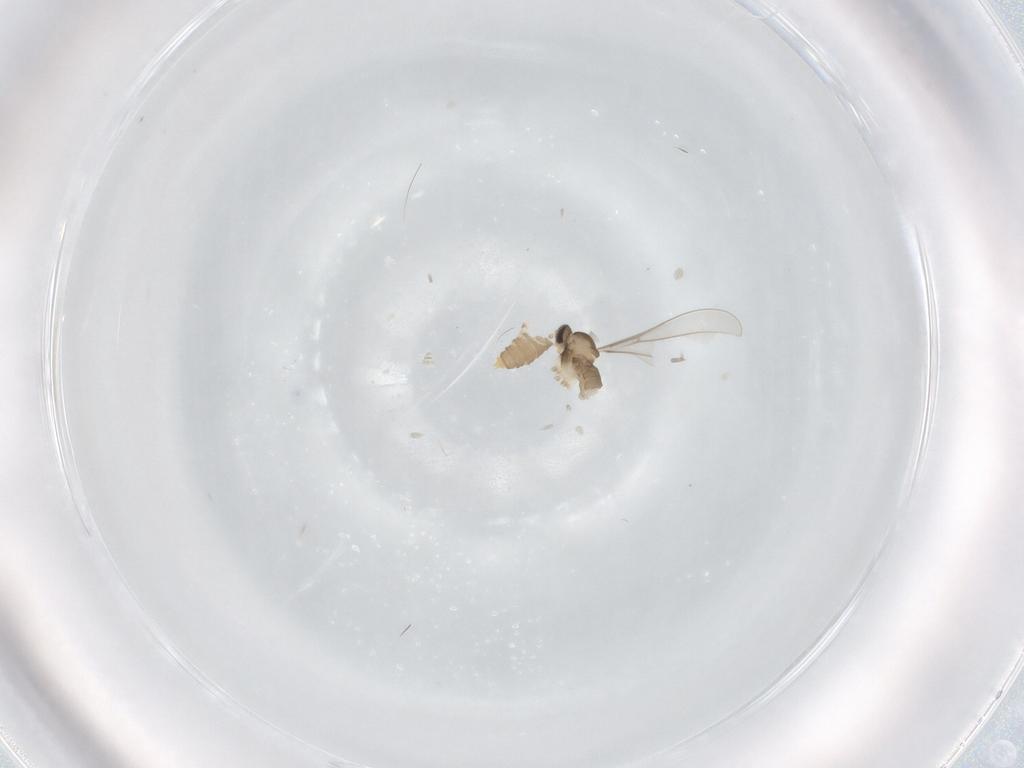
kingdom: Animalia
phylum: Arthropoda
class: Insecta
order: Diptera
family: Cecidomyiidae
